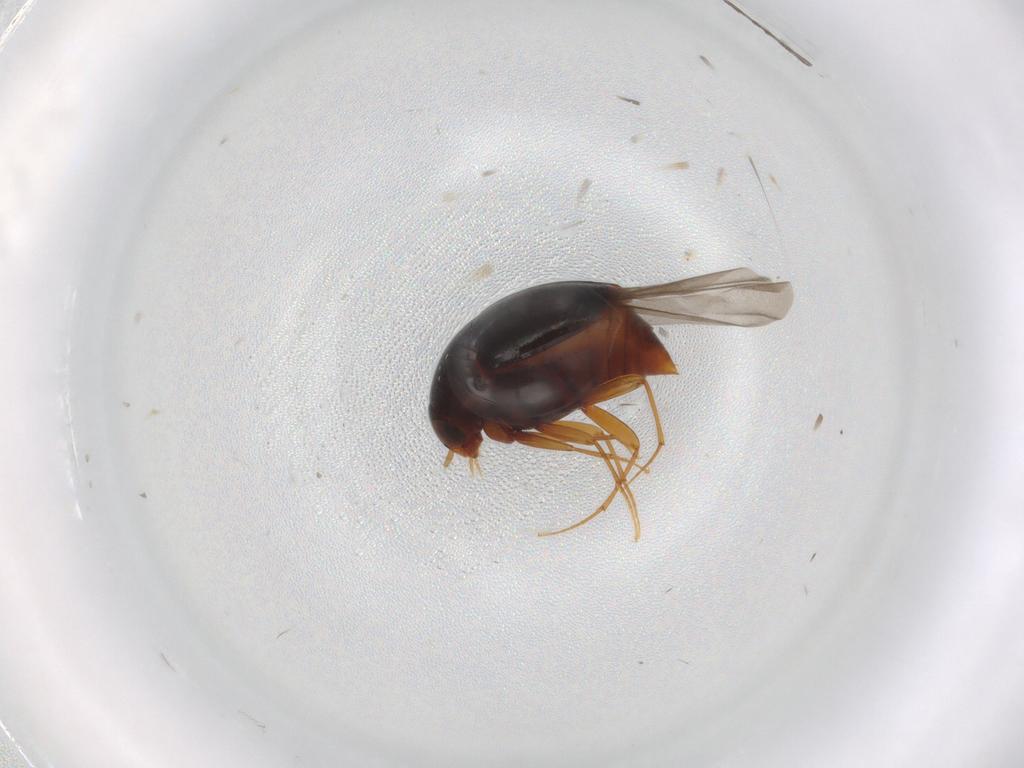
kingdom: Animalia
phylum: Arthropoda
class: Insecta
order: Coleoptera
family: Staphylinidae
